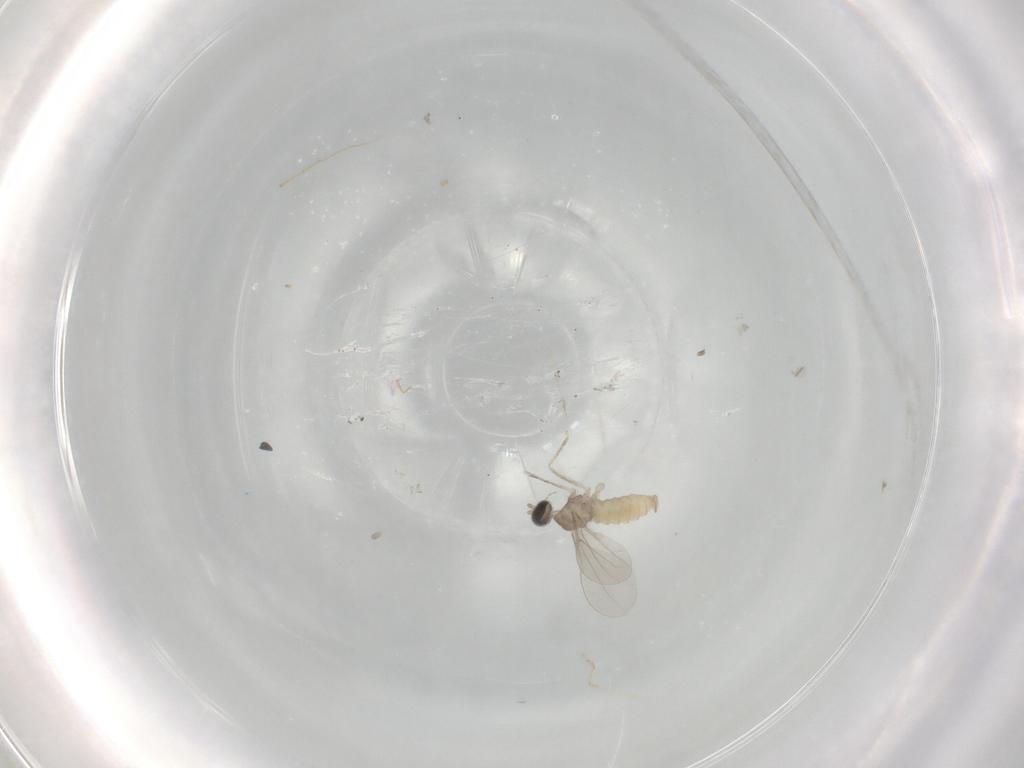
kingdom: Animalia
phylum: Arthropoda
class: Insecta
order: Diptera
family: Cecidomyiidae
